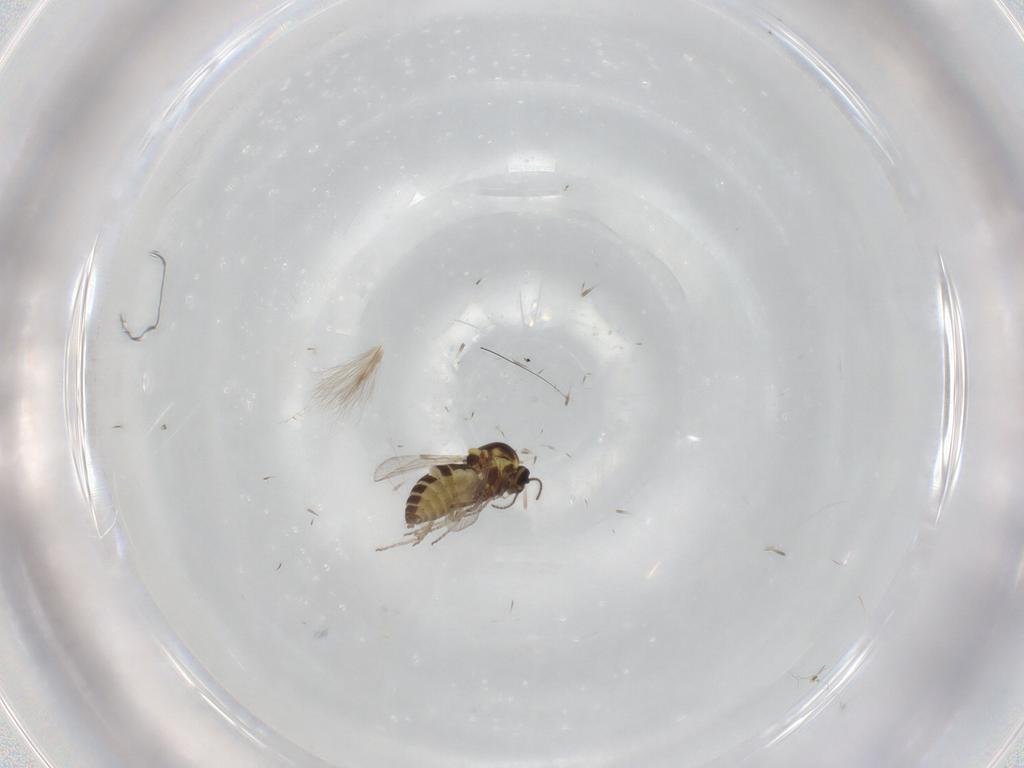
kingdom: Animalia
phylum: Arthropoda
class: Insecta
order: Diptera
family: Ceratopogonidae
